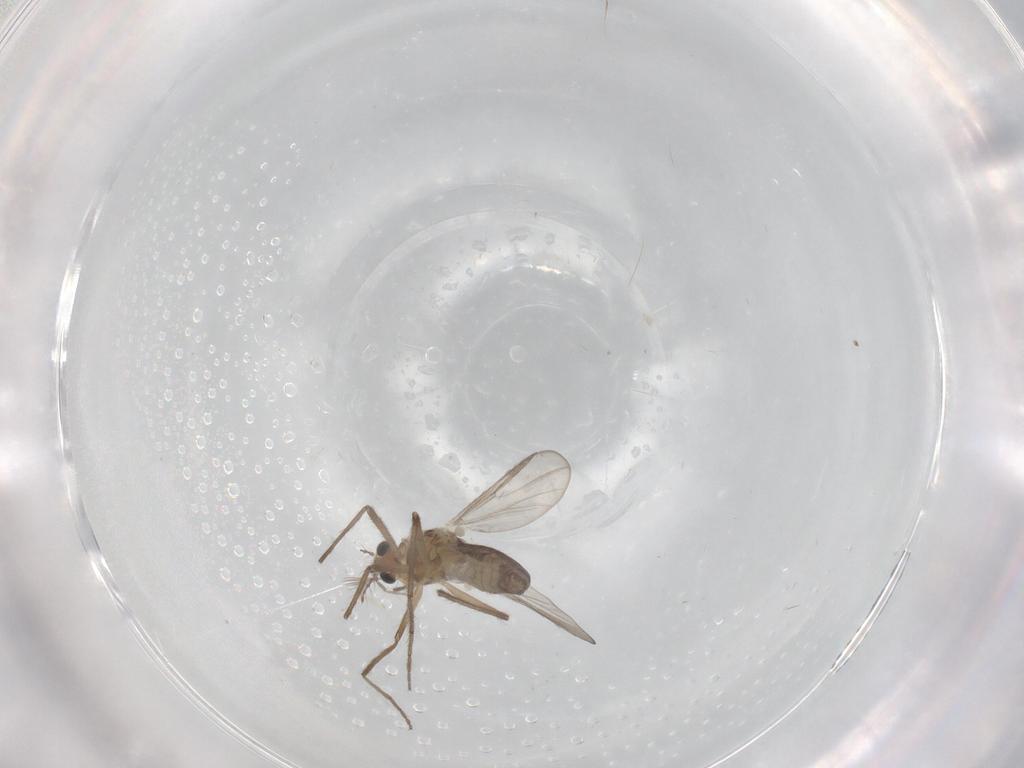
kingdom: Animalia
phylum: Arthropoda
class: Insecta
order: Diptera
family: Chironomidae
